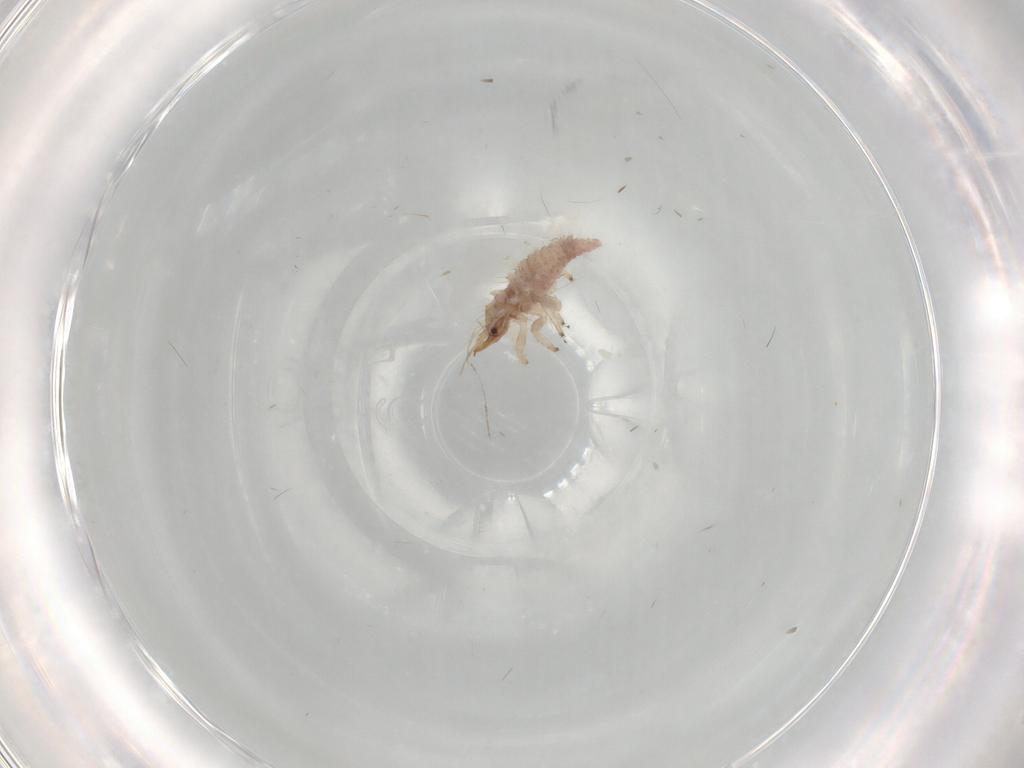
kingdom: Animalia
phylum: Arthropoda
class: Insecta
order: Neuroptera
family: Chrysopidae
